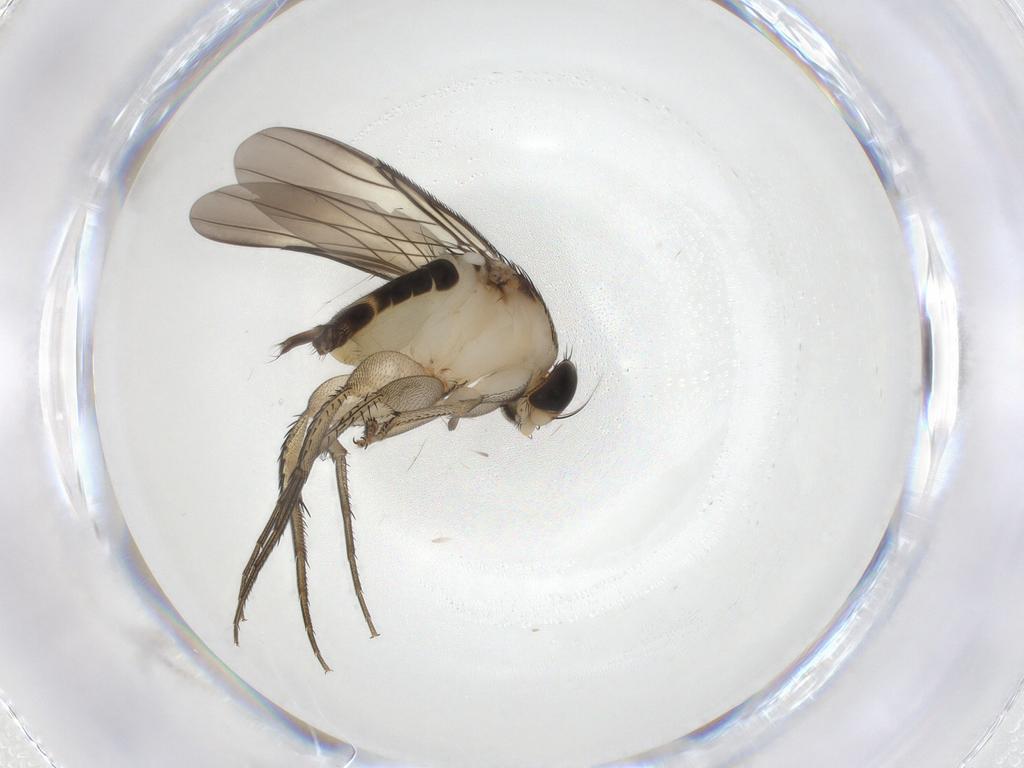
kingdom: Animalia
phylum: Arthropoda
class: Insecta
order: Diptera
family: Phoridae
